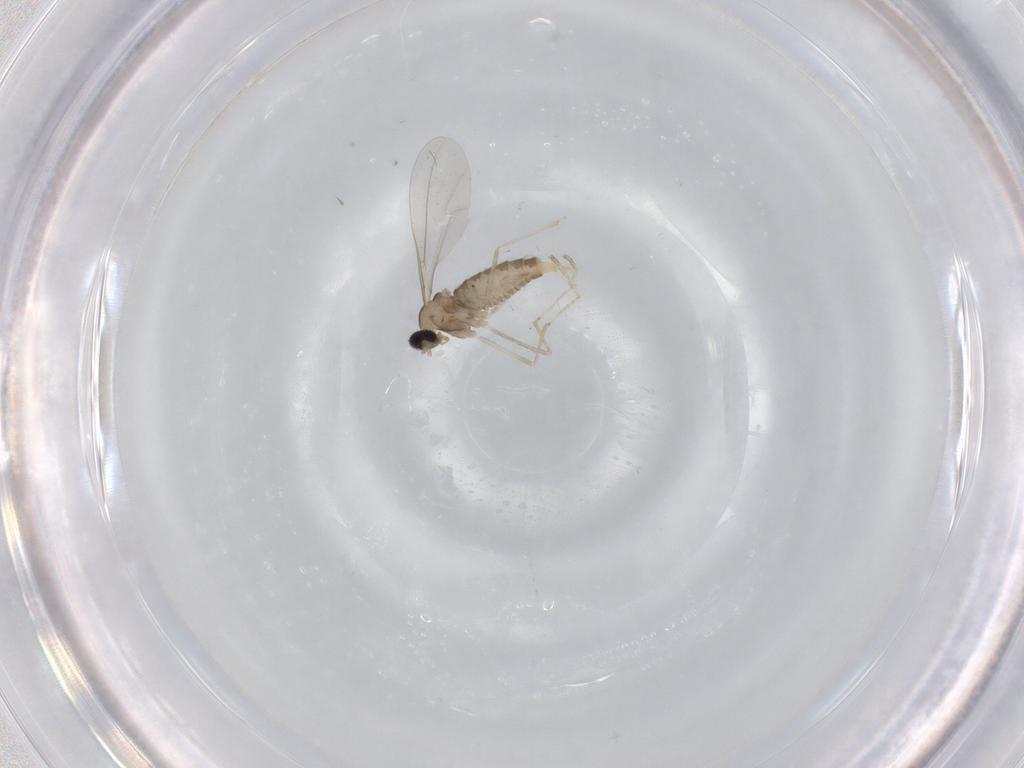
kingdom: Animalia
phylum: Arthropoda
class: Insecta
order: Diptera
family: Cecidomyiidae
